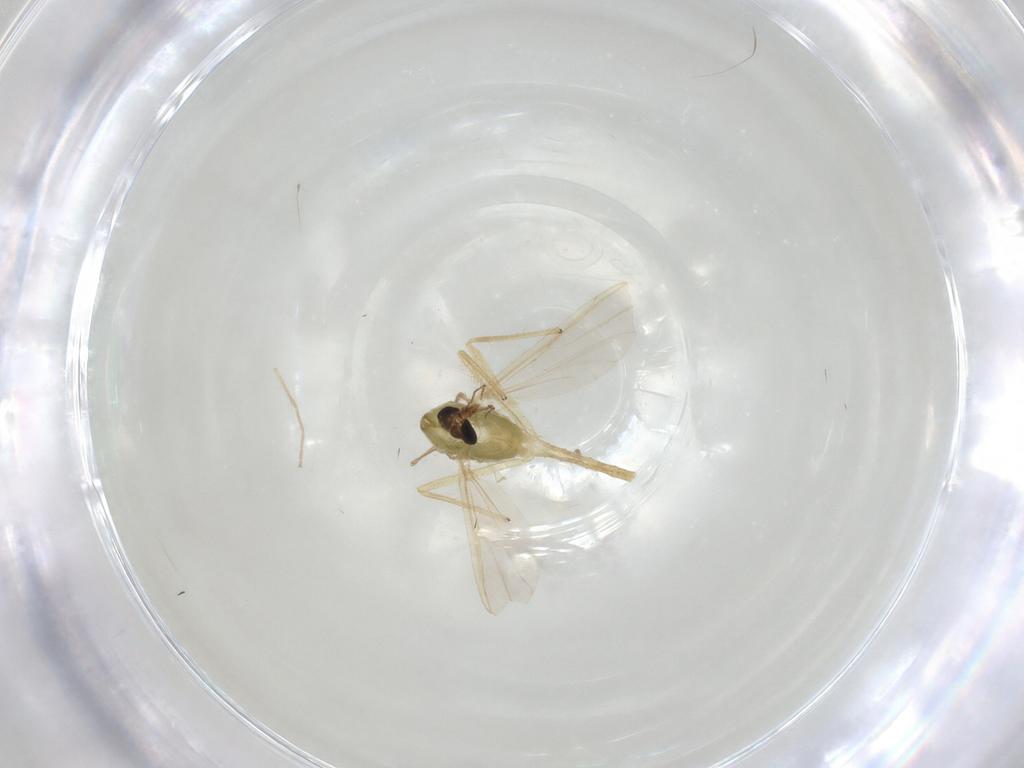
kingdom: Animalia
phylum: Arthropoda
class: Insecta
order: Diptera
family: Chironomidae
